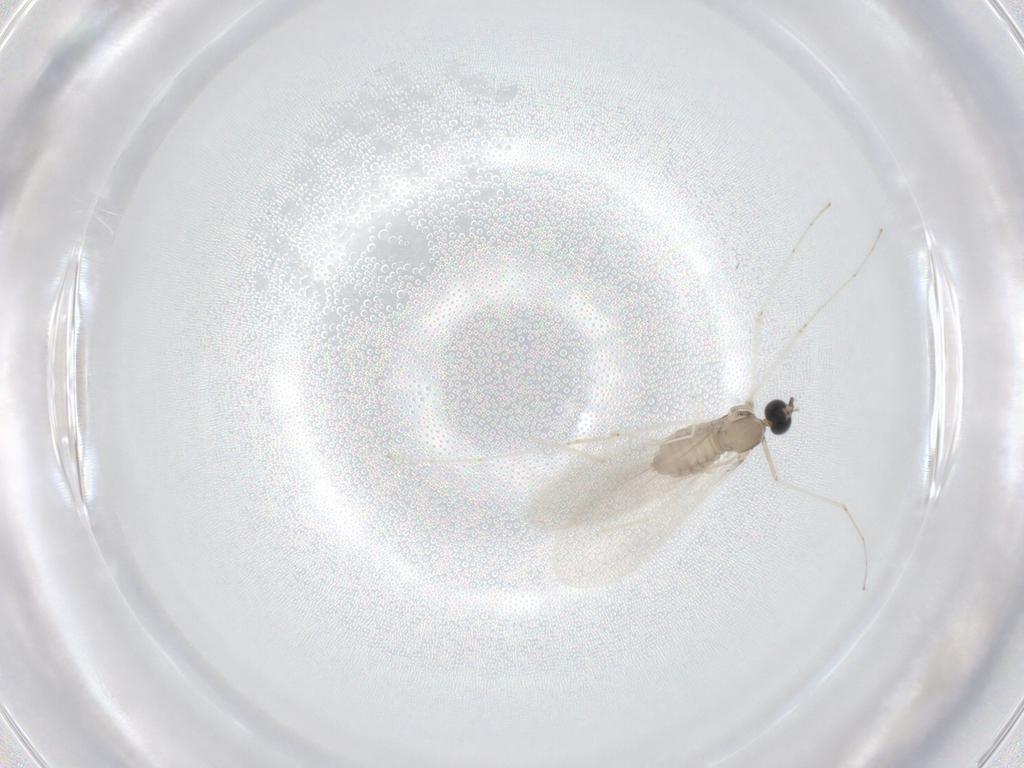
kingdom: Animalia
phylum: Arthropoda
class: Insecta
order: Diptera
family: Cecidomyiidae
